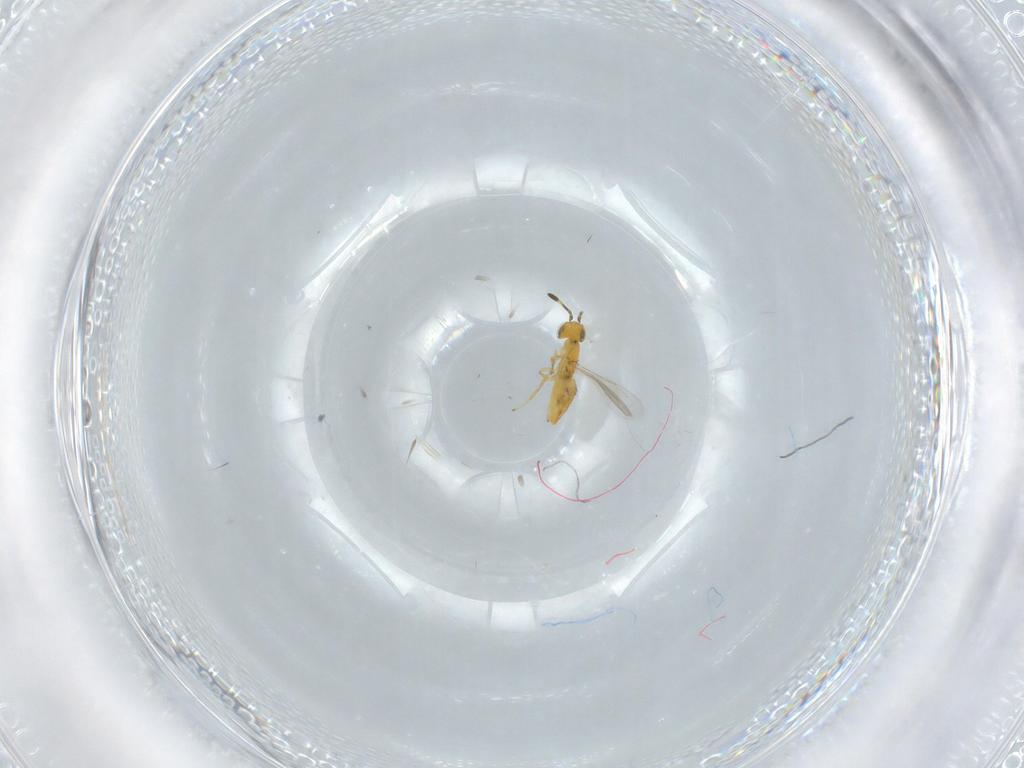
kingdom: Animalia
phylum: Arthropoda
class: Insecta
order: Hymenoptera
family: Encyrtidae
